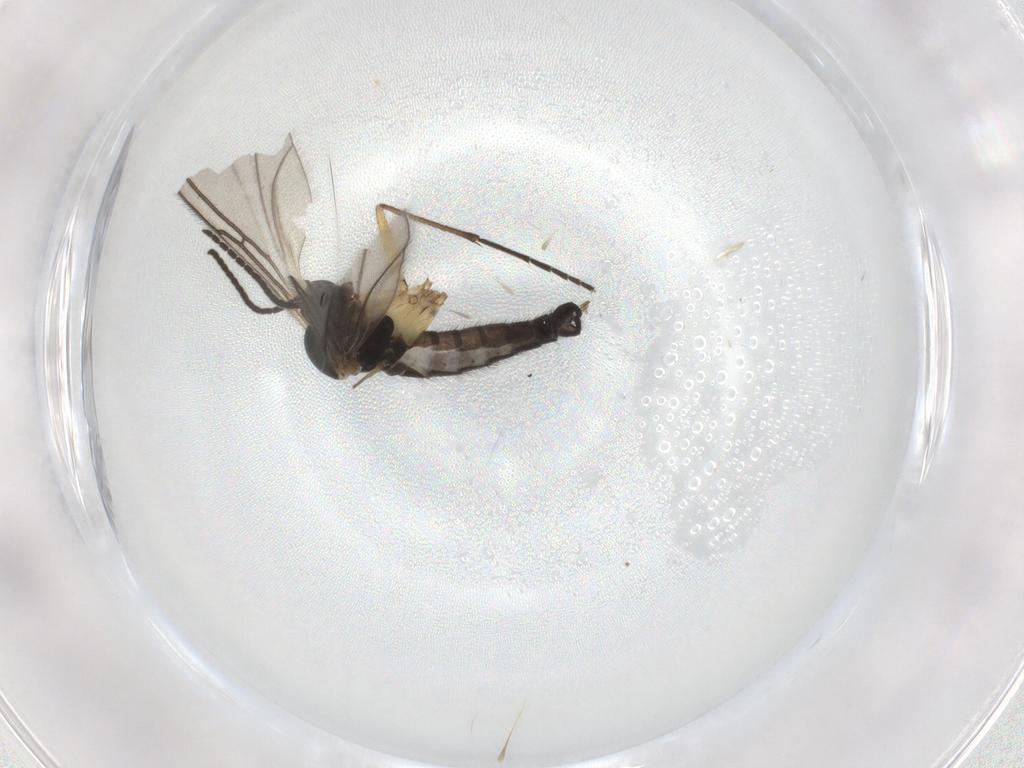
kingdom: Animalia
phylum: Arthropoda
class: Insecta
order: Diptera
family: Sciaridae
